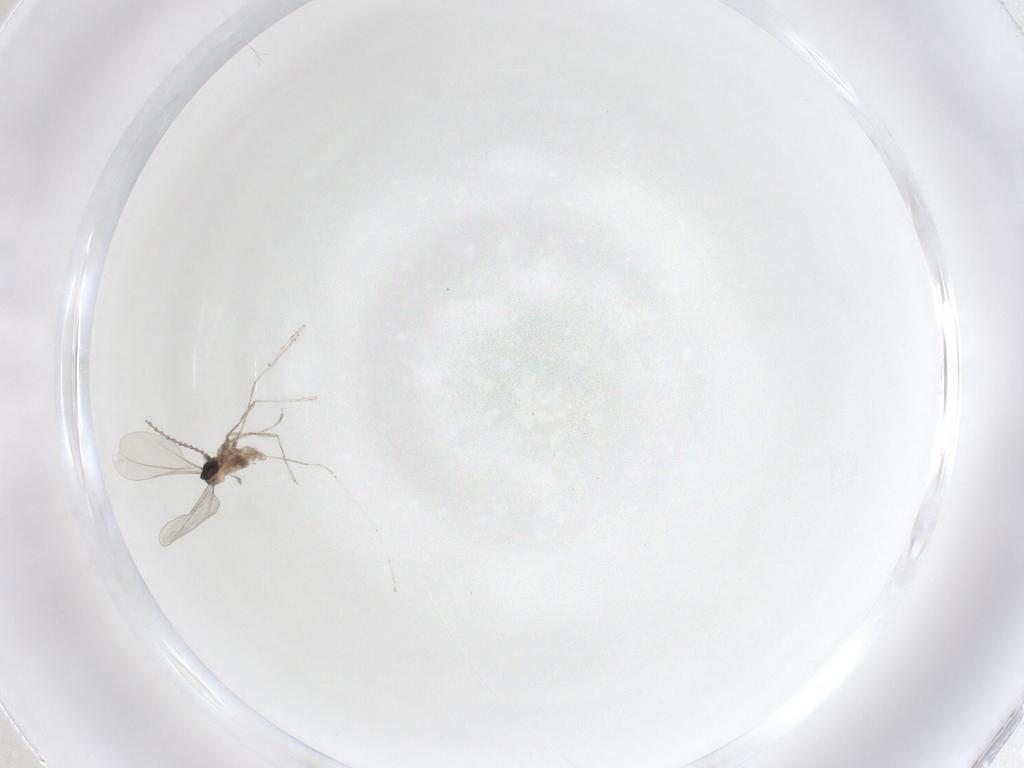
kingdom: Animalia
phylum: Arthropoda
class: Insecta
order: Diptera
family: Cecidomyiidae
